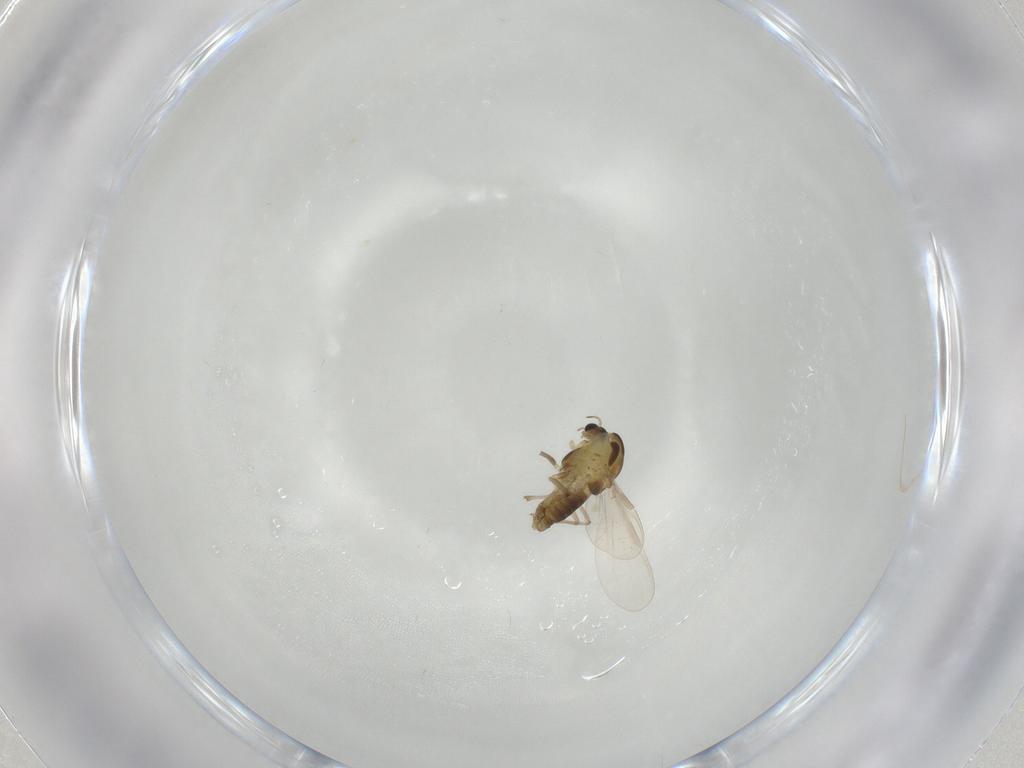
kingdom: Animalia
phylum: Arthropoda
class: Insecta
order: Diptera
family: Chironomidae
